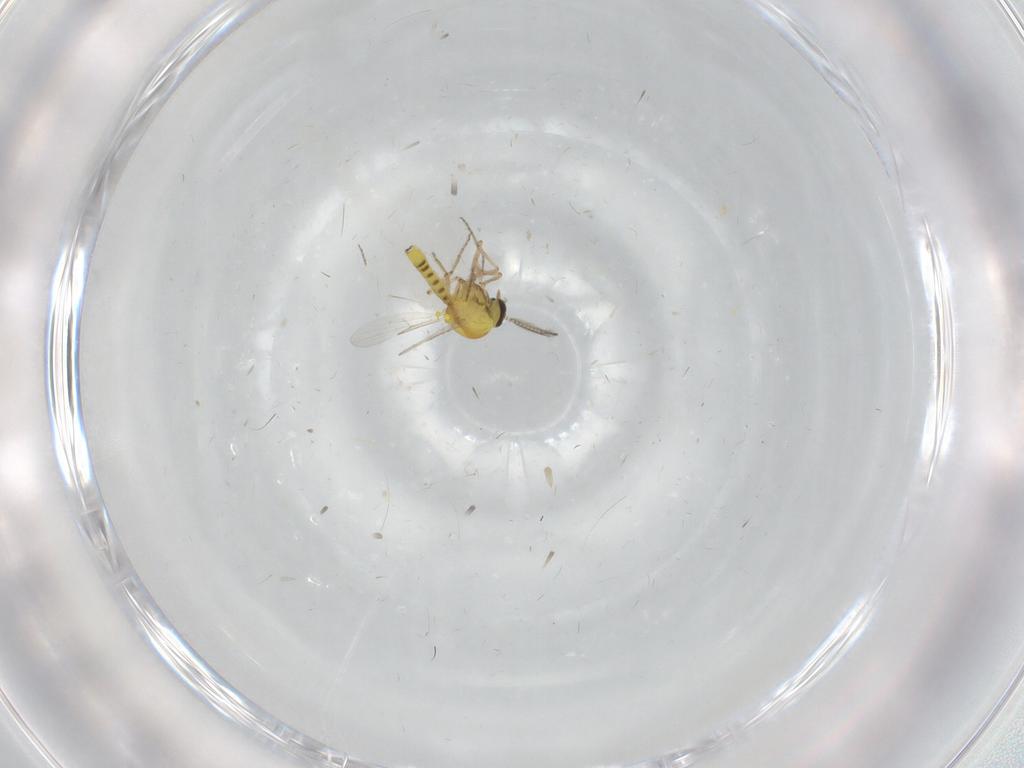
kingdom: Animalia
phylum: Arthropoda
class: Insecta
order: Diptera
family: Ceratopogonidae
